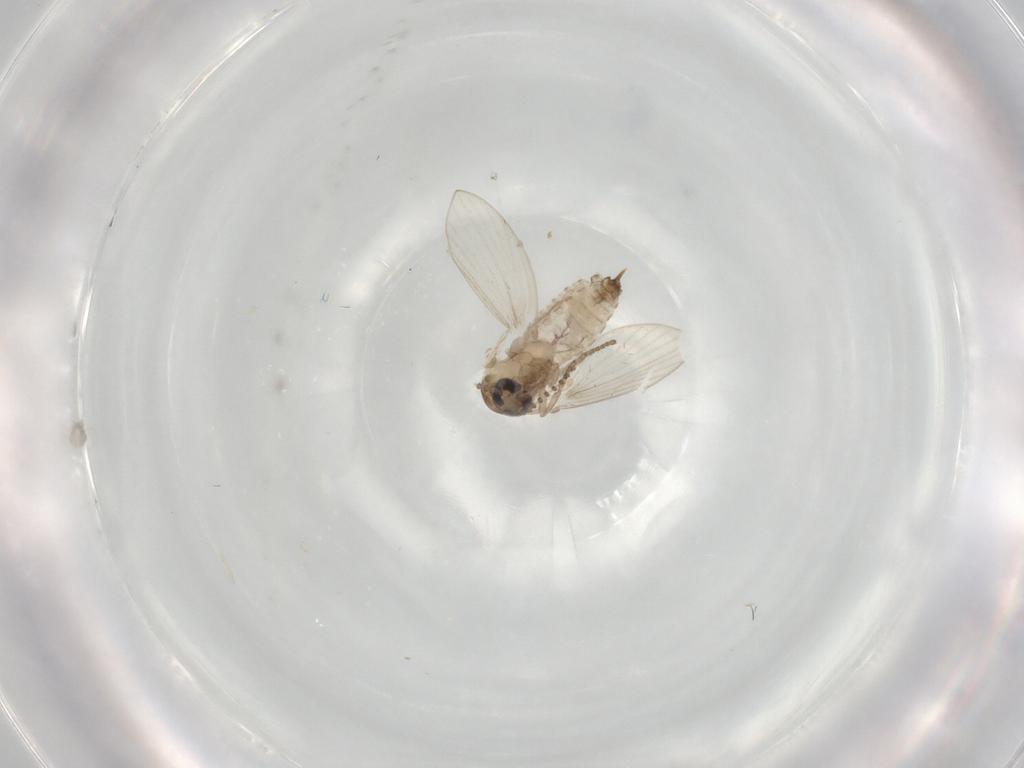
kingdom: Animalia
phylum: Arthropoda
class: Insecta
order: Diptera
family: Psychodidae
